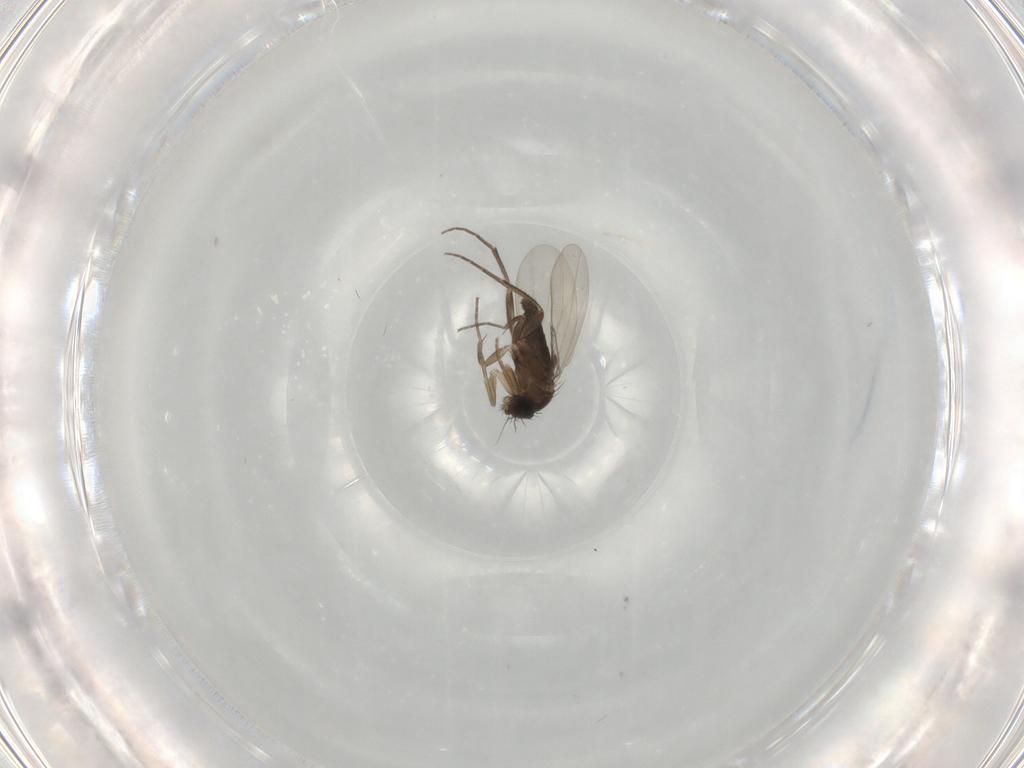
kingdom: Animalia
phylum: Arthropoda
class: Insecta
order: Diptera
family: Phoridae
